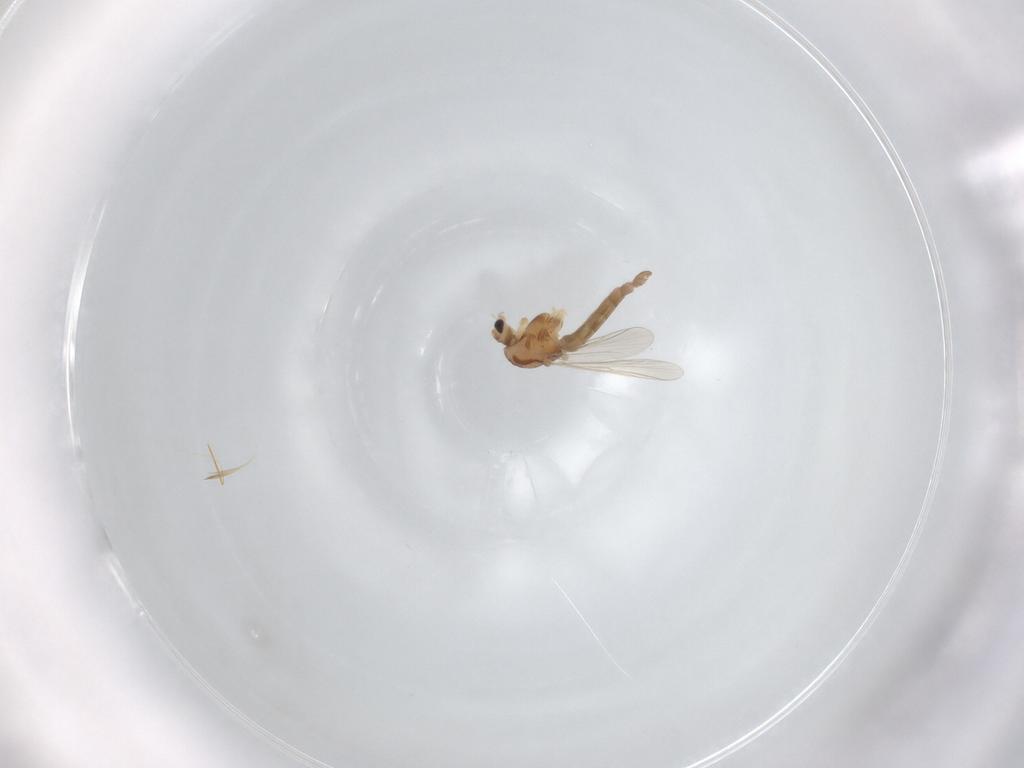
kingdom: Animalia
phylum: Arthropoda
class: Insecta
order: Diptera
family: Chironomidae
